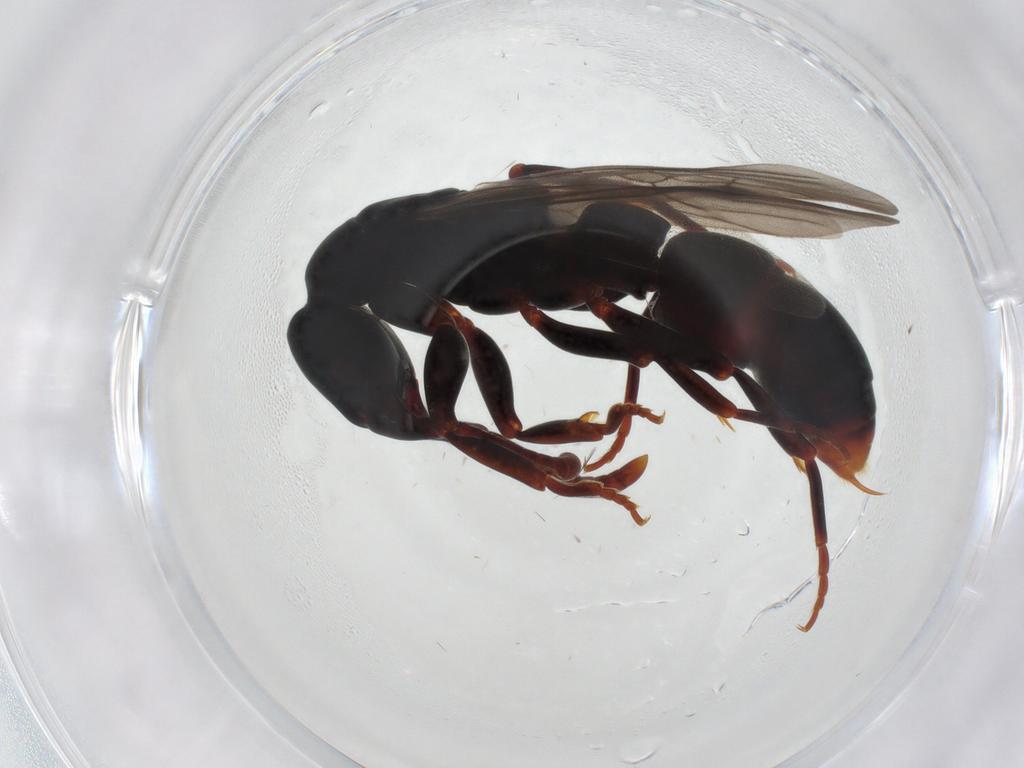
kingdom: Animalia
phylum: Arthropoda
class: Insecta
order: Hymenoptera
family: Formicidae
